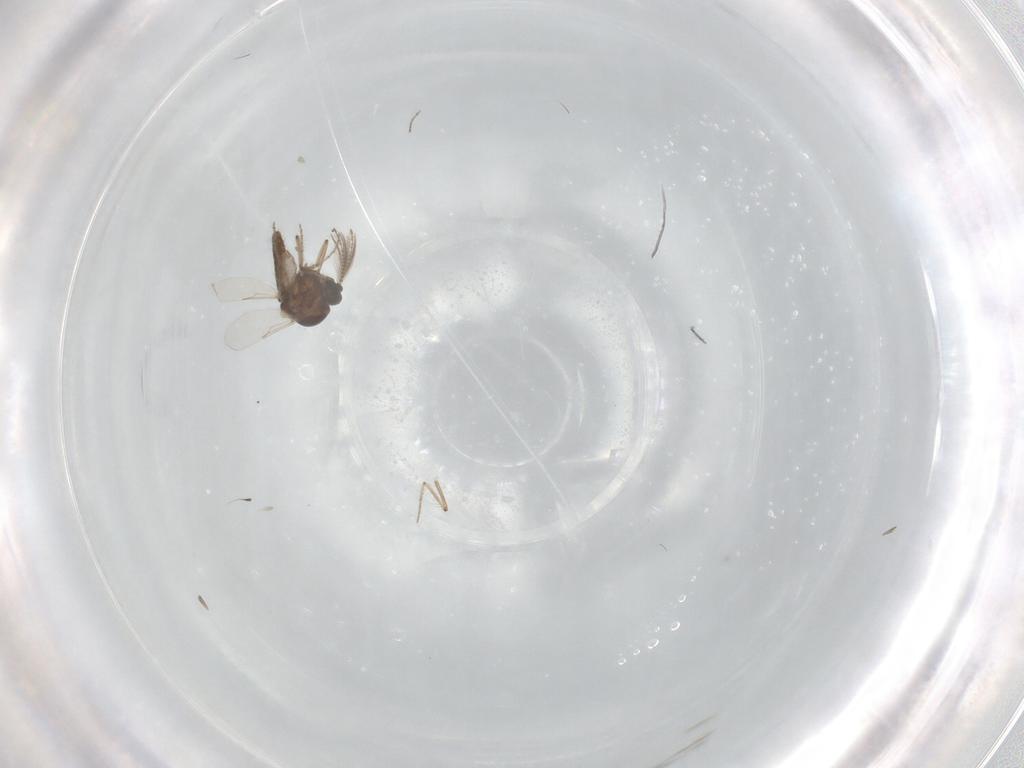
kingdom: Animalia
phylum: Arthropoda
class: Insecta
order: Diptera
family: Ceratopogonidae
